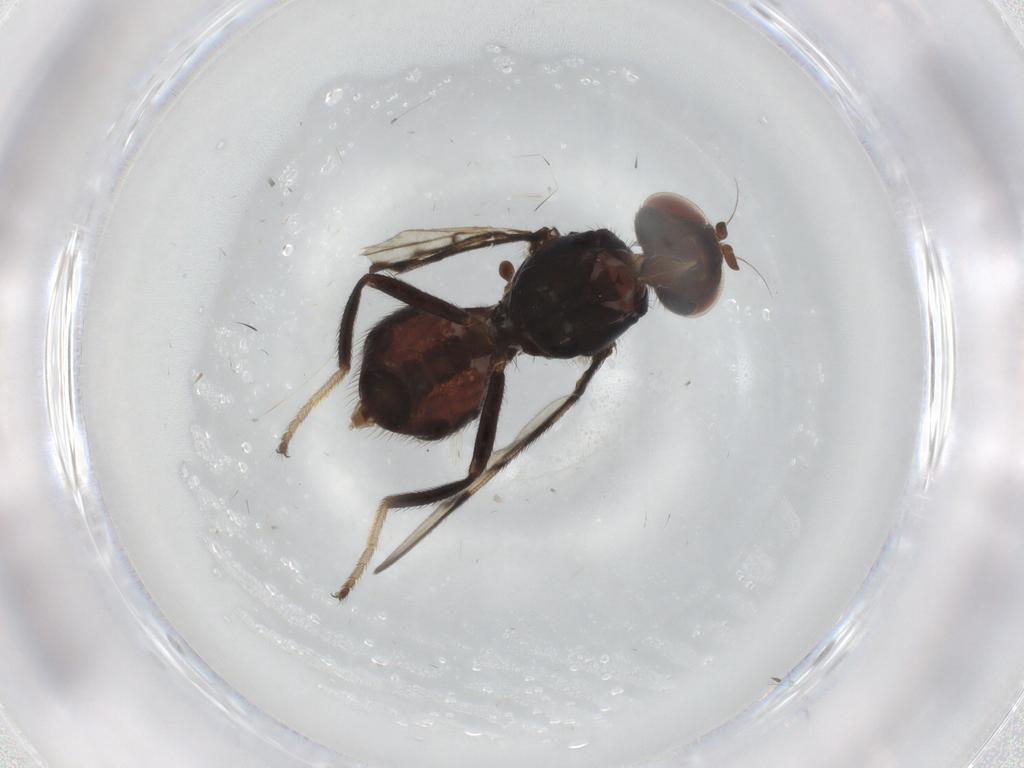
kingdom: Animalia
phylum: Arthropoda
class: Insecta
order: Diptera
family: Platystomatidae
